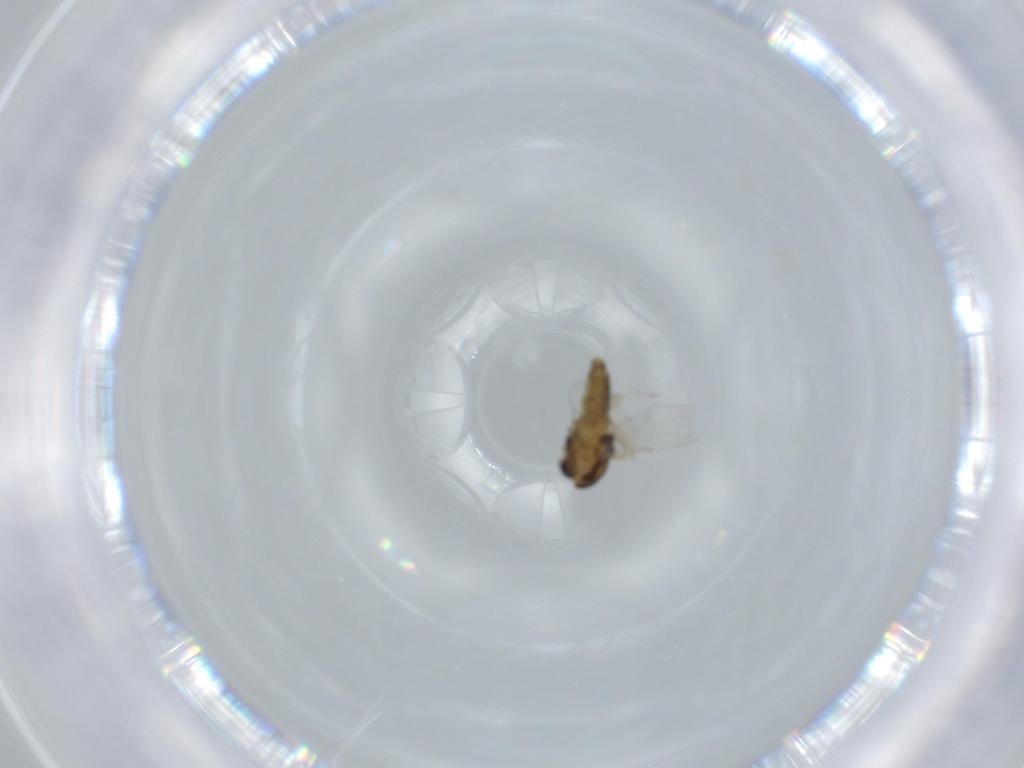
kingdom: Animalia
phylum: Arthropoda
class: Insecta
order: Diptera
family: Chironomidae
